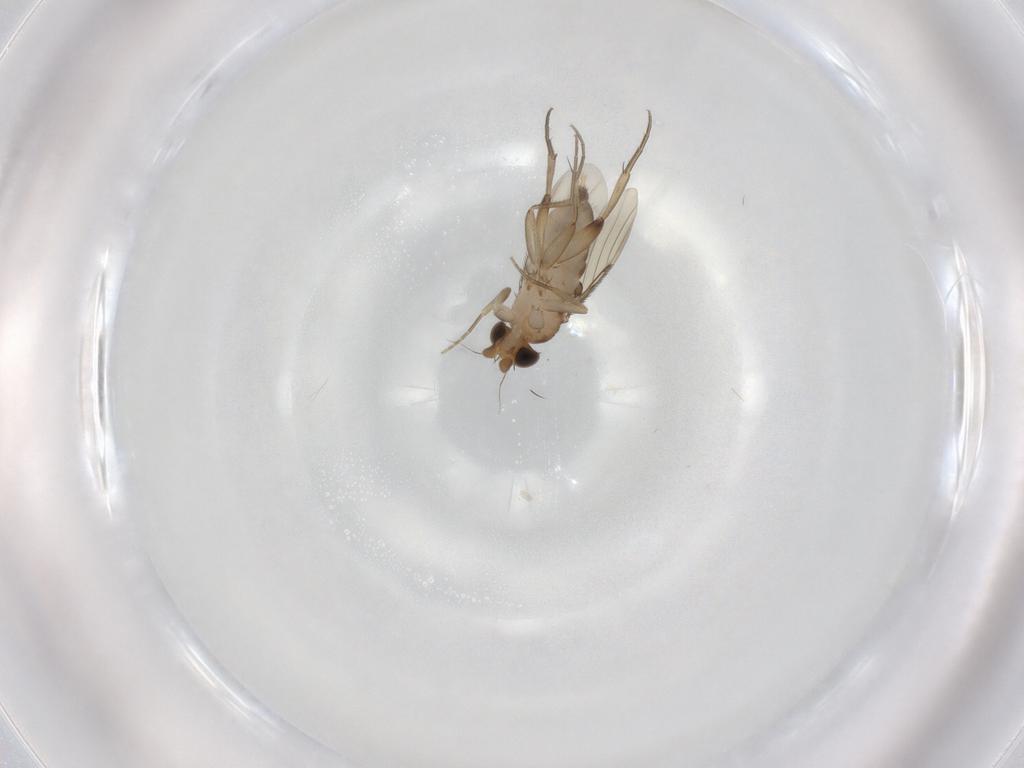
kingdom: Animalia
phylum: Arthropoda
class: Insecta
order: Diptera
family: Phoridae
